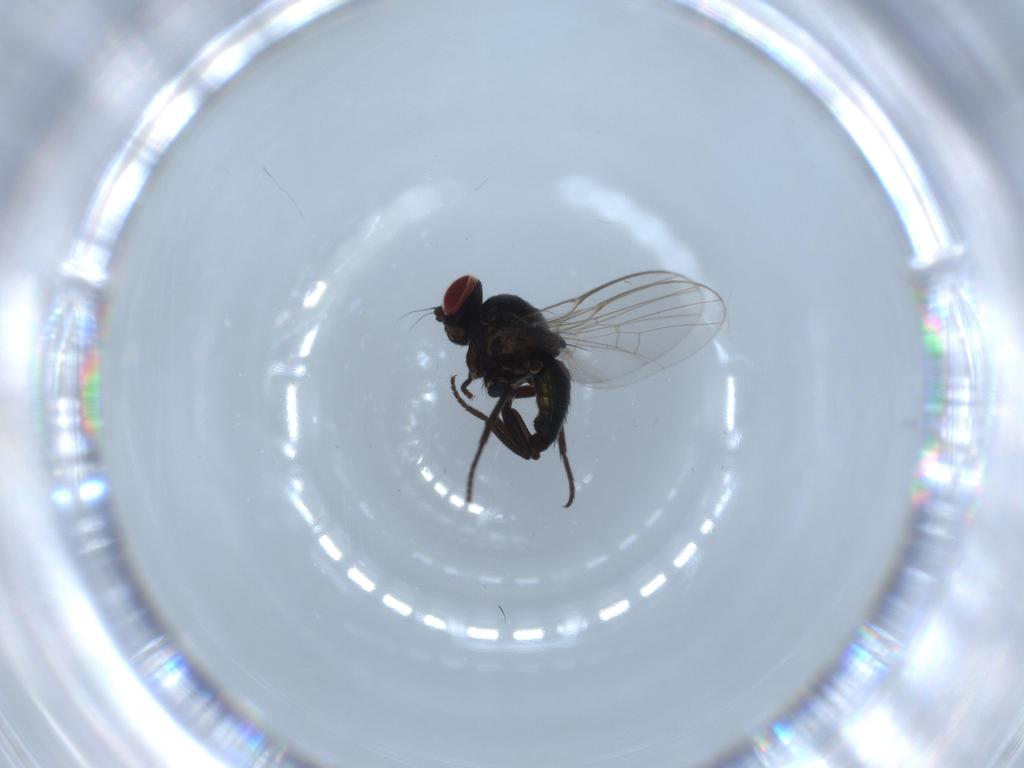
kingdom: Animalia
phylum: Arthropoda
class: Insecta
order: Diptera
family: Agromyzidae
